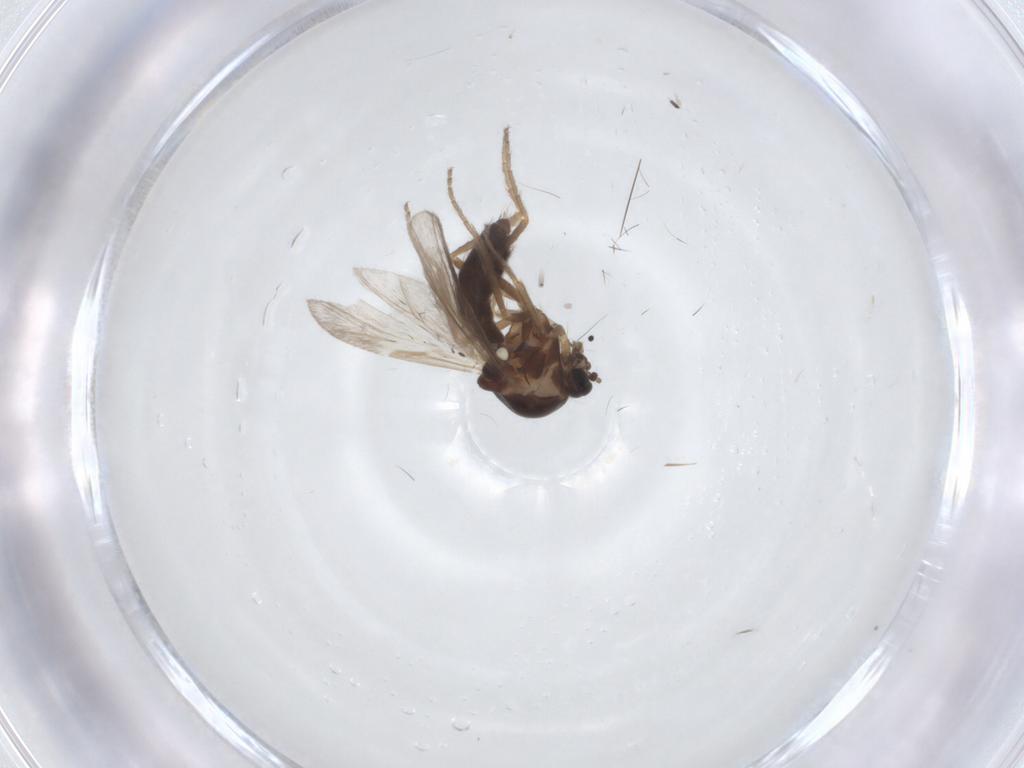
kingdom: Animalia
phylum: Arthropoda
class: Insecta
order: Diptera
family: Ceratopogonidae
